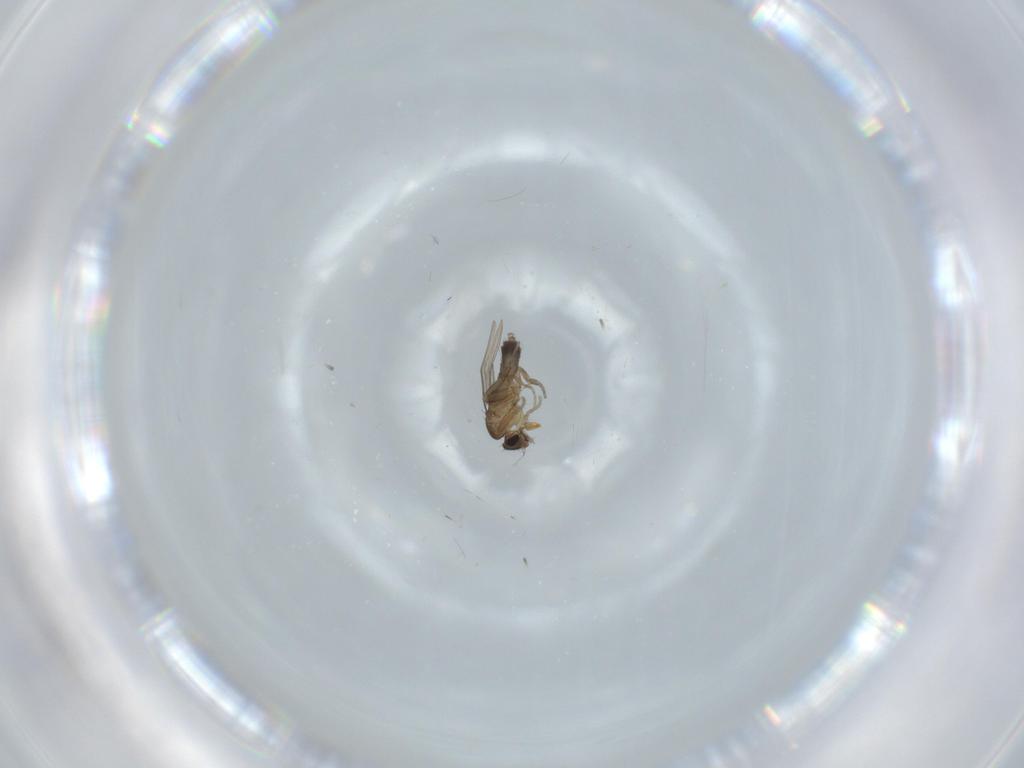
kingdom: Animalia
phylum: Arthropoda
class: Insecta
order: Diptera
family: Phoridae
